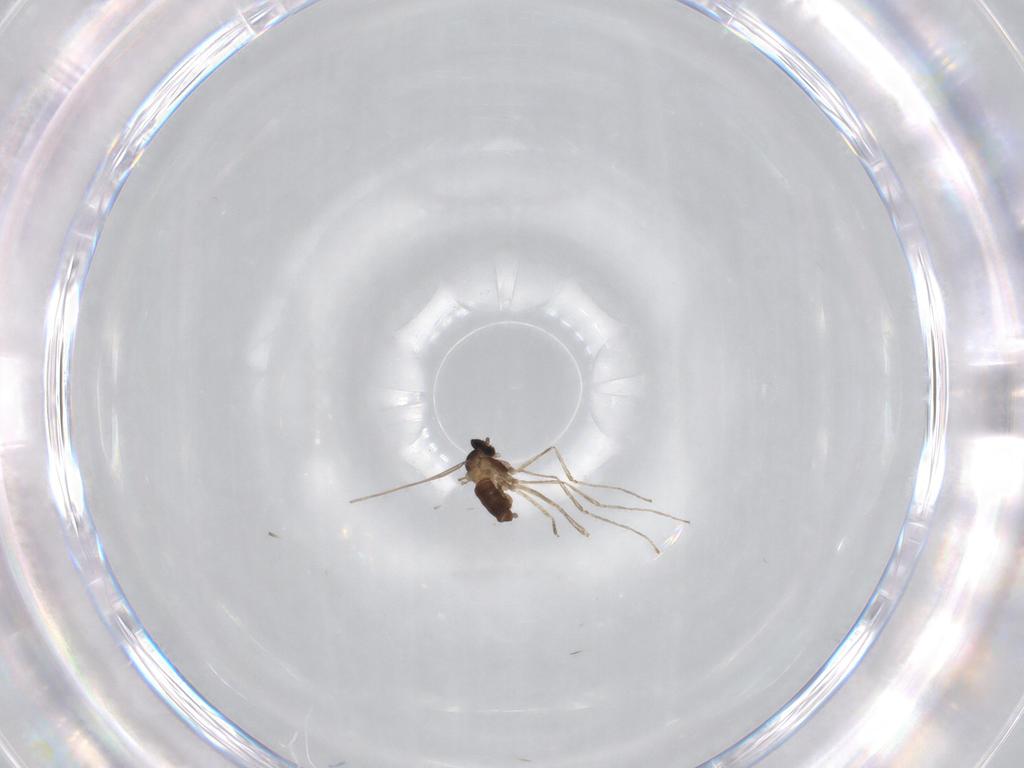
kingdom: Animalia
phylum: Arthropoda
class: Insecta
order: Diptera
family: Cecidomyiidae
